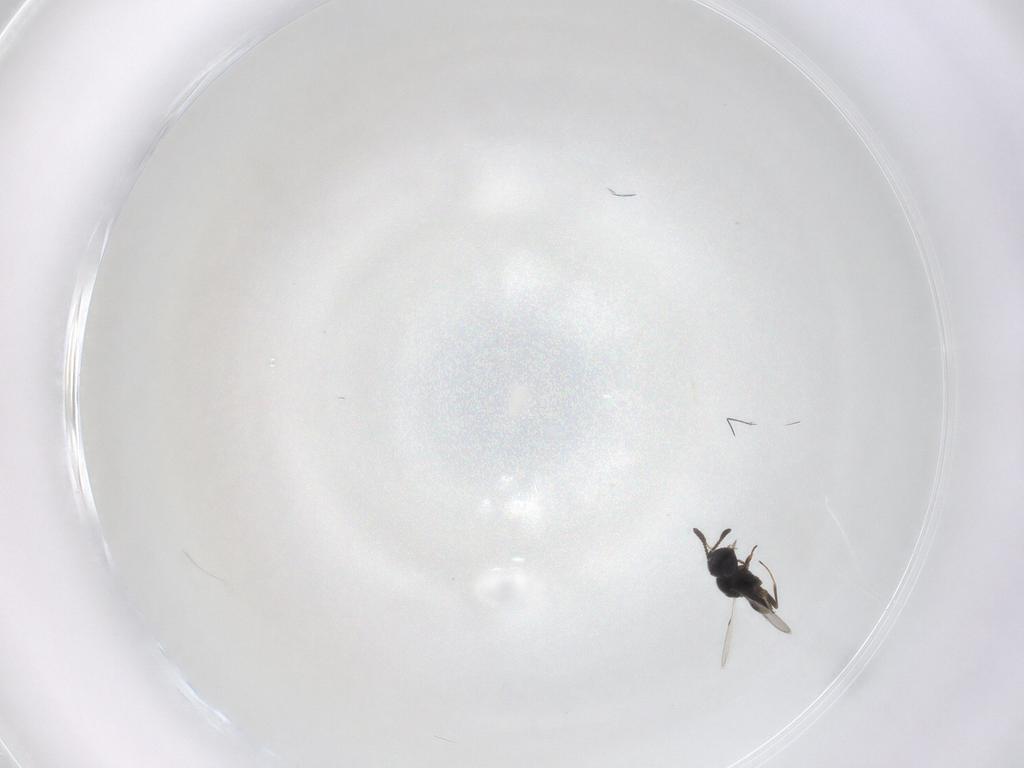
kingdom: Animalia
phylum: Arthropoda
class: Insecta
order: Hymenoptera
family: Scelionidae
